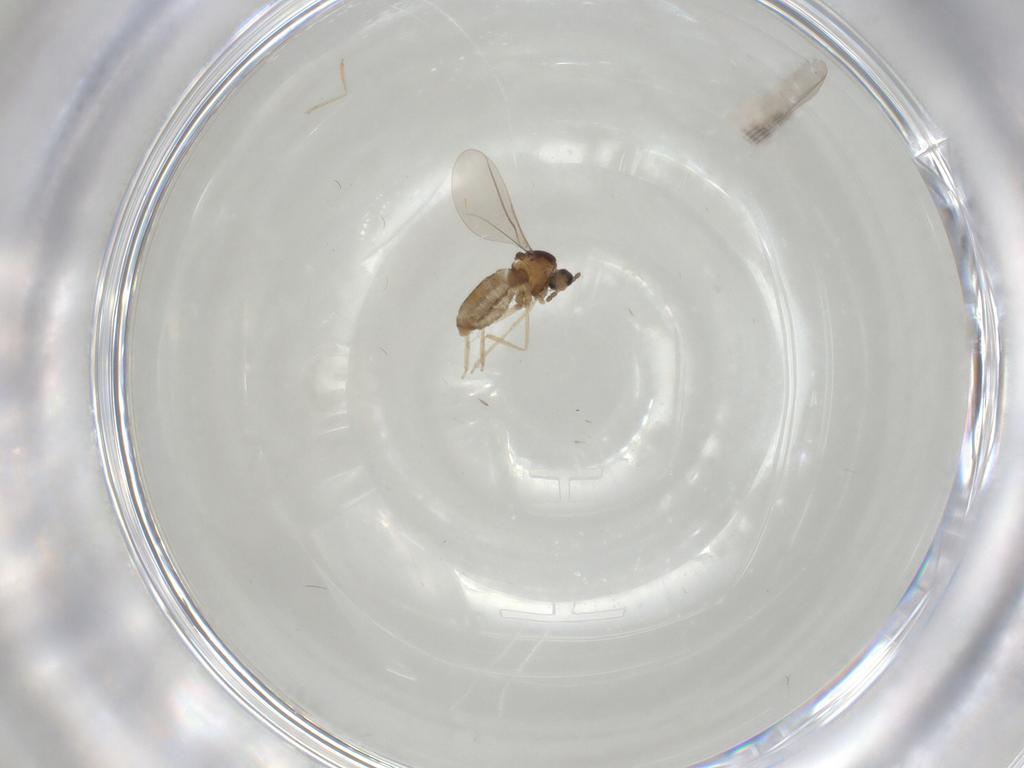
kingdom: Animalia
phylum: Arthropoda
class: Insecta
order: Diptera
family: Cecidomyiidae
